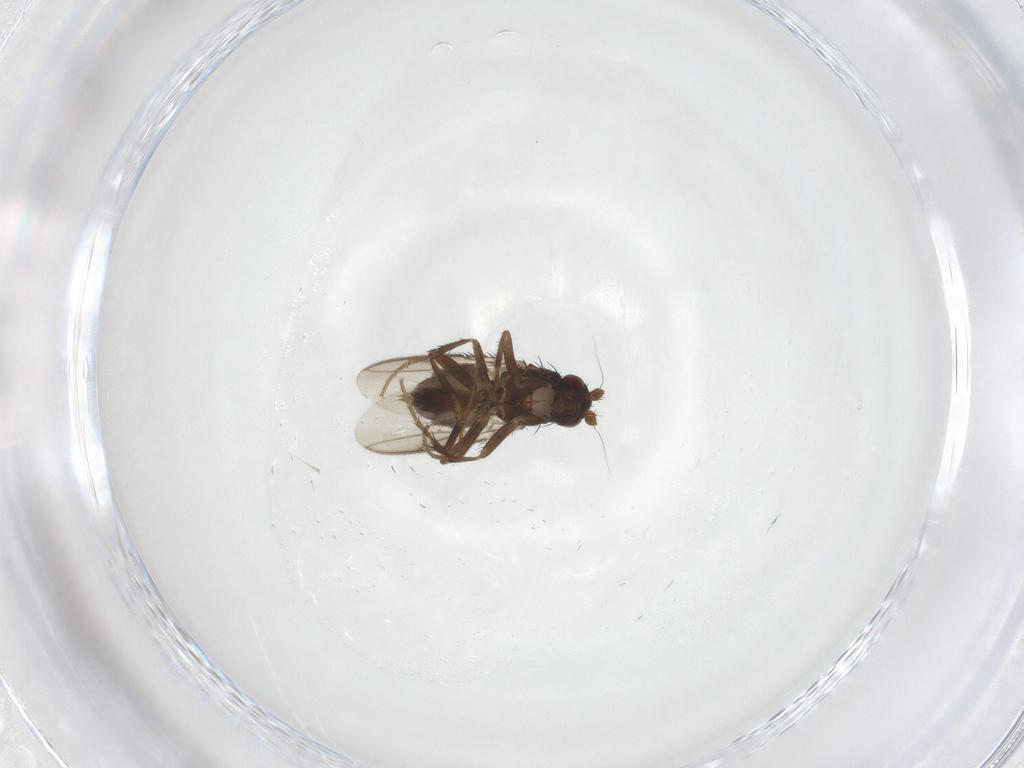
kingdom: Animalia
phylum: Arthropoda
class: Insecta
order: Diptera
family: Sphaeroceridae
